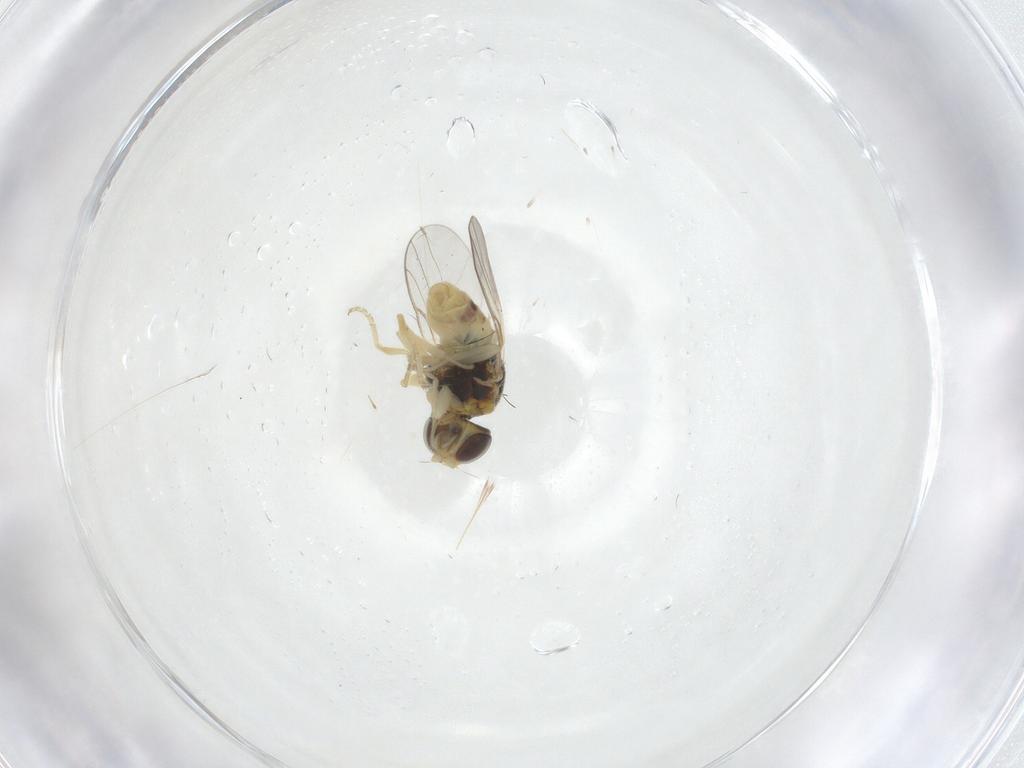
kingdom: Animalia
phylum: Arthropoda
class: Insecta
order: Diptera
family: Chloropidae
